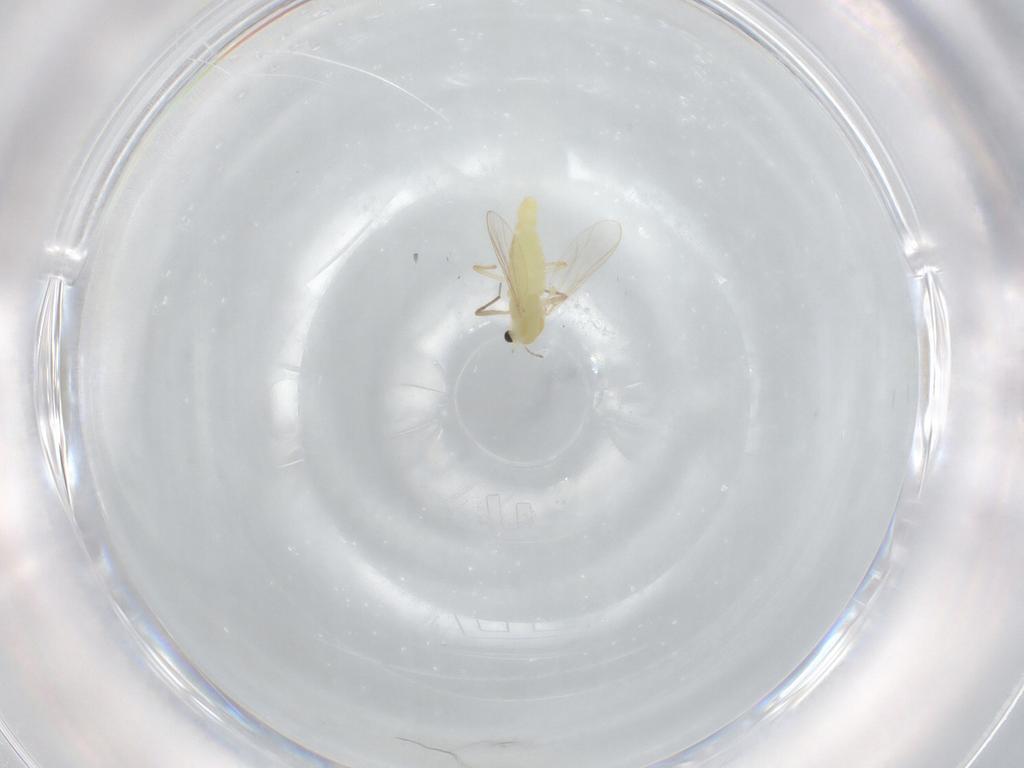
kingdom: Animalia
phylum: Arthropoda
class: Insecta
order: Diptera
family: Chironomidae
